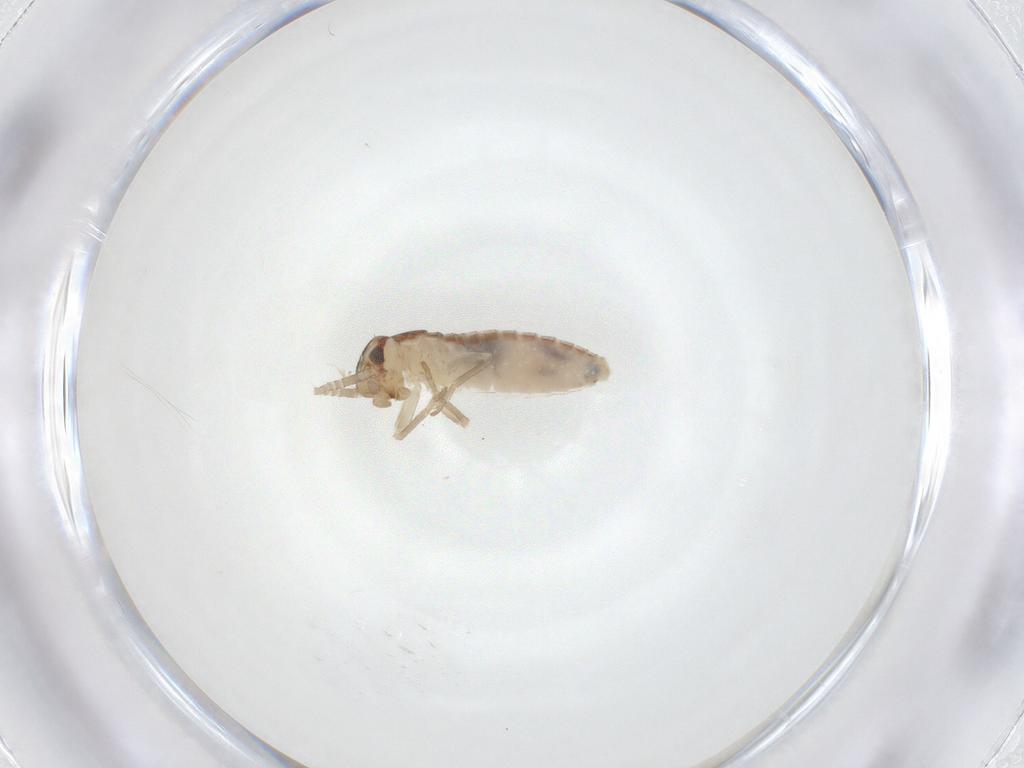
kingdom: Animalia
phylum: Arthropoda
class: Insecta
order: Orthoptera
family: Gryllidae
